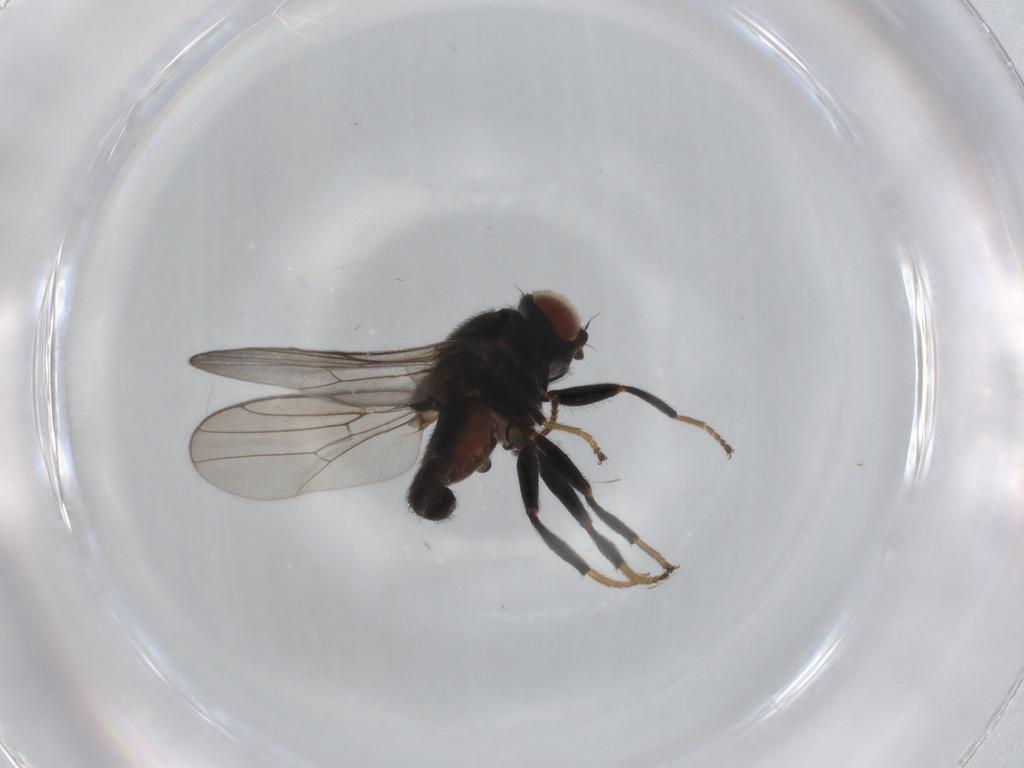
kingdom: Animalia
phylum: Arthropoda
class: Insecta
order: Diptera
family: Chloropidae
